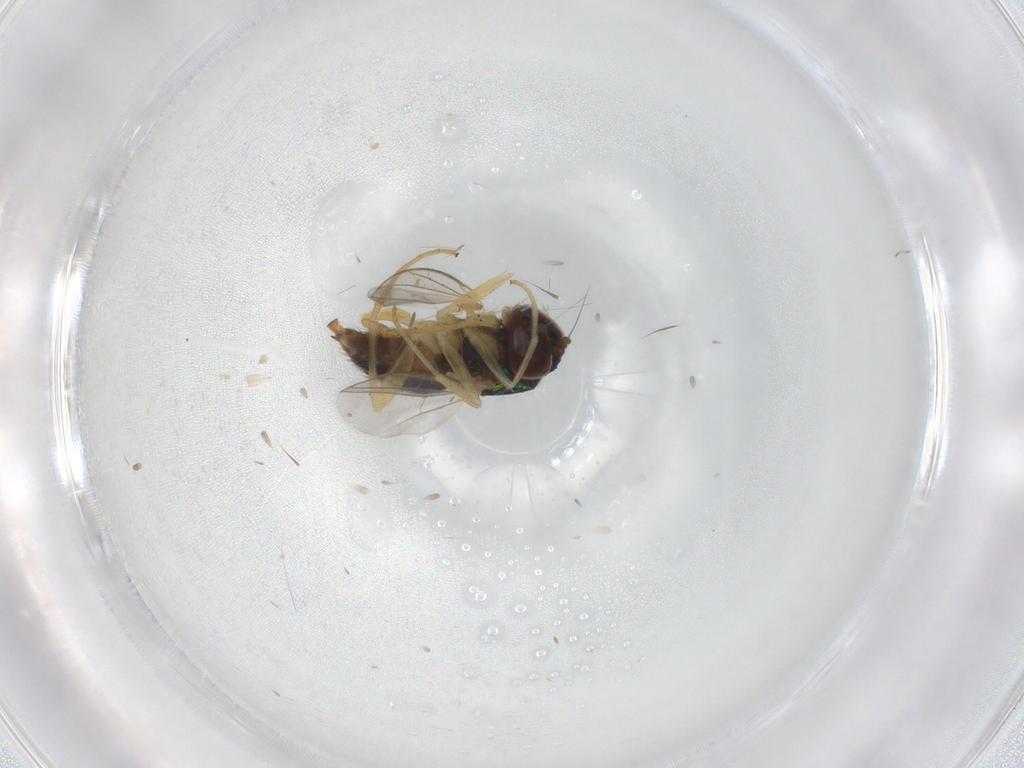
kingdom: Animalia
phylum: Arthropoda
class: Insecta
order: Diptera
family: Dolichopodidae
